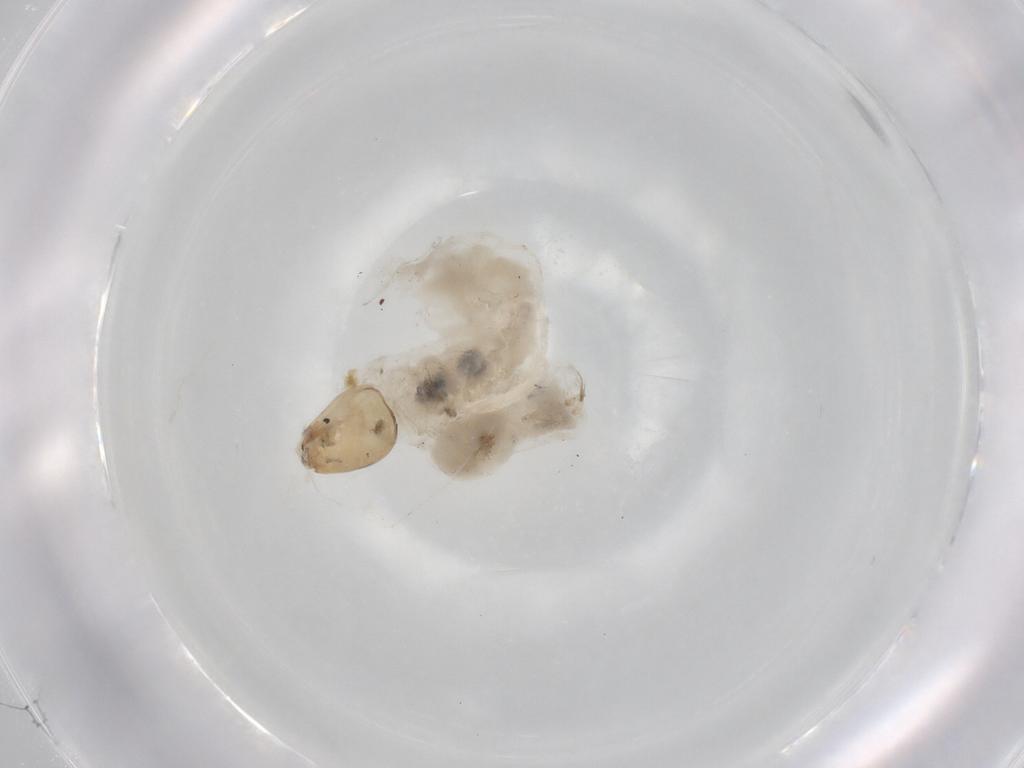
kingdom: Animalia
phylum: Arthropoda
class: Insecta
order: Diptera
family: Chironomidae
